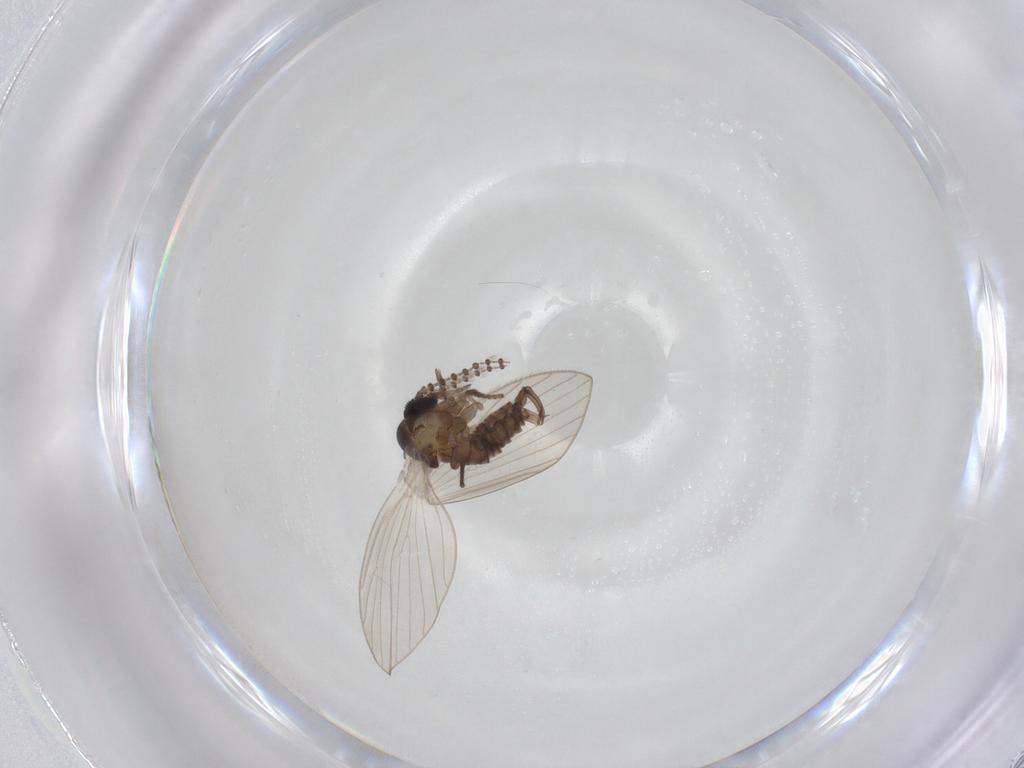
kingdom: Animalia
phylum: Arthropoda
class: Insecta
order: Diptera
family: Psychodidae
